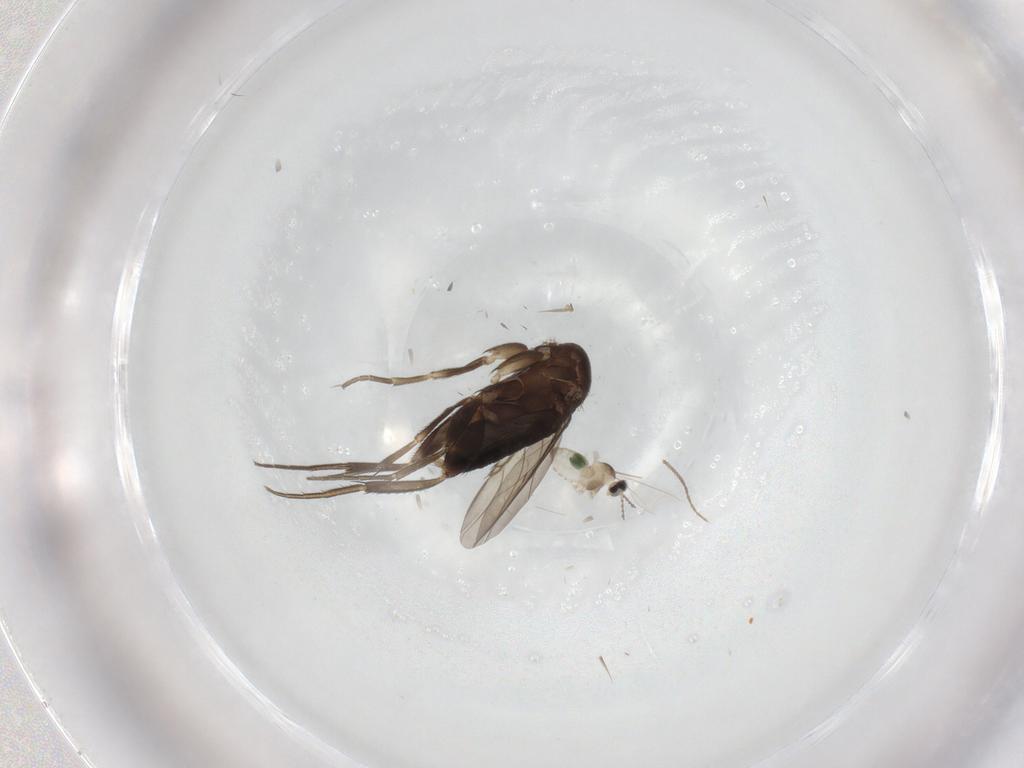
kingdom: Animalia
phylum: Arthropoda
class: Insecta
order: Diptera
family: Phoridae
